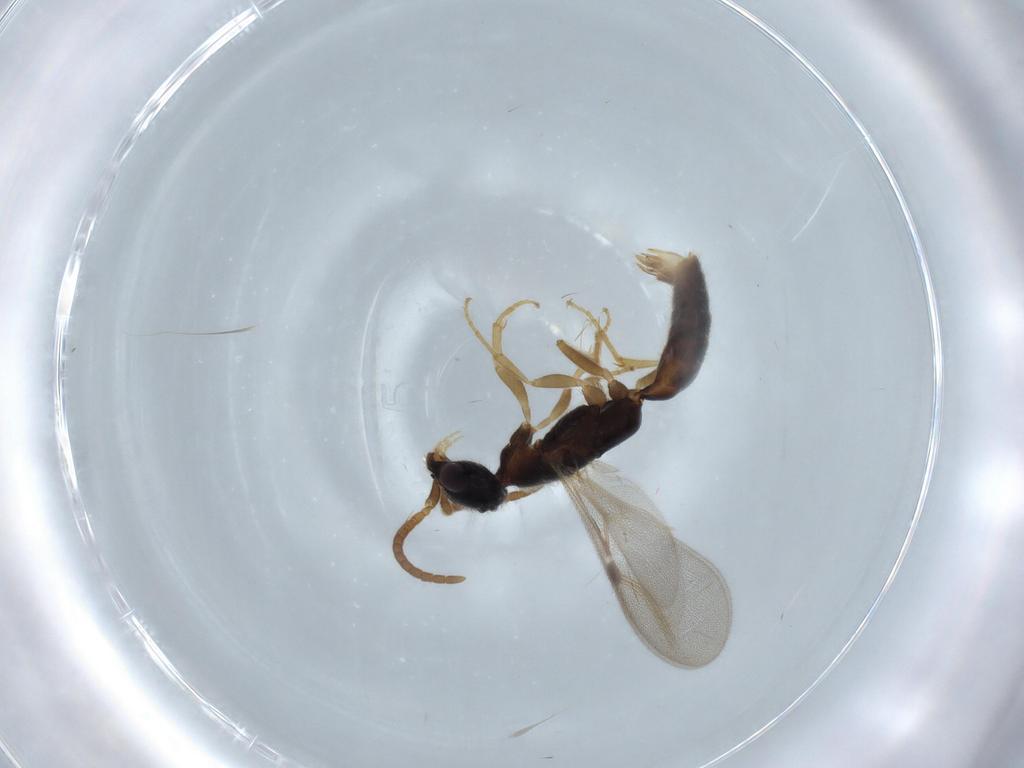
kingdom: Animalia
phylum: Arthropoda
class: Insecta
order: Hymenoptera
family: Bethylidae
